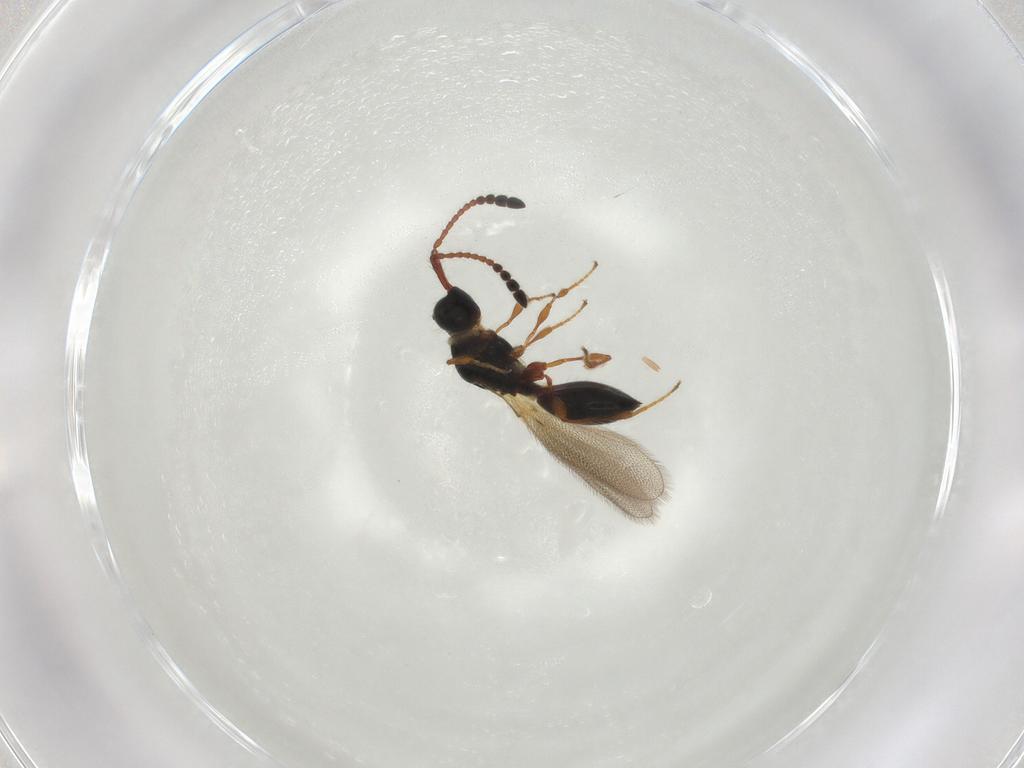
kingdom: Animalia
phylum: Arthropoda
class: Insecta
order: Hymenoptera
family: Diapriidae
